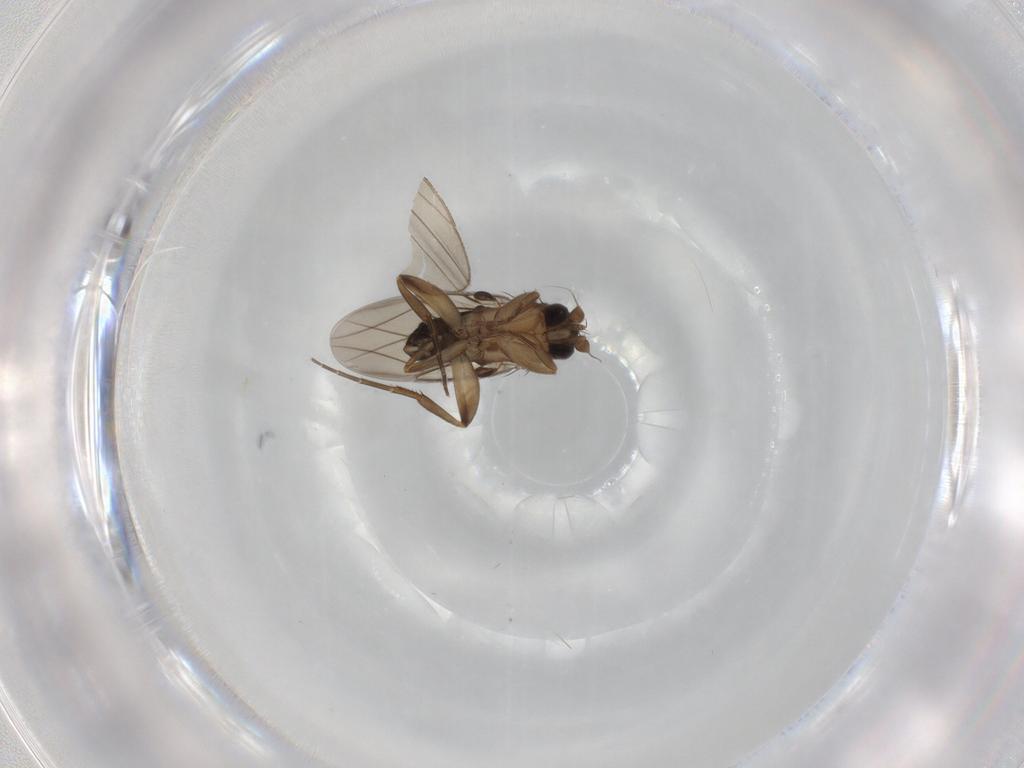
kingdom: Animalia
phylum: Arthropoda
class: Insecta
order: Diptera
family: Phoridae
